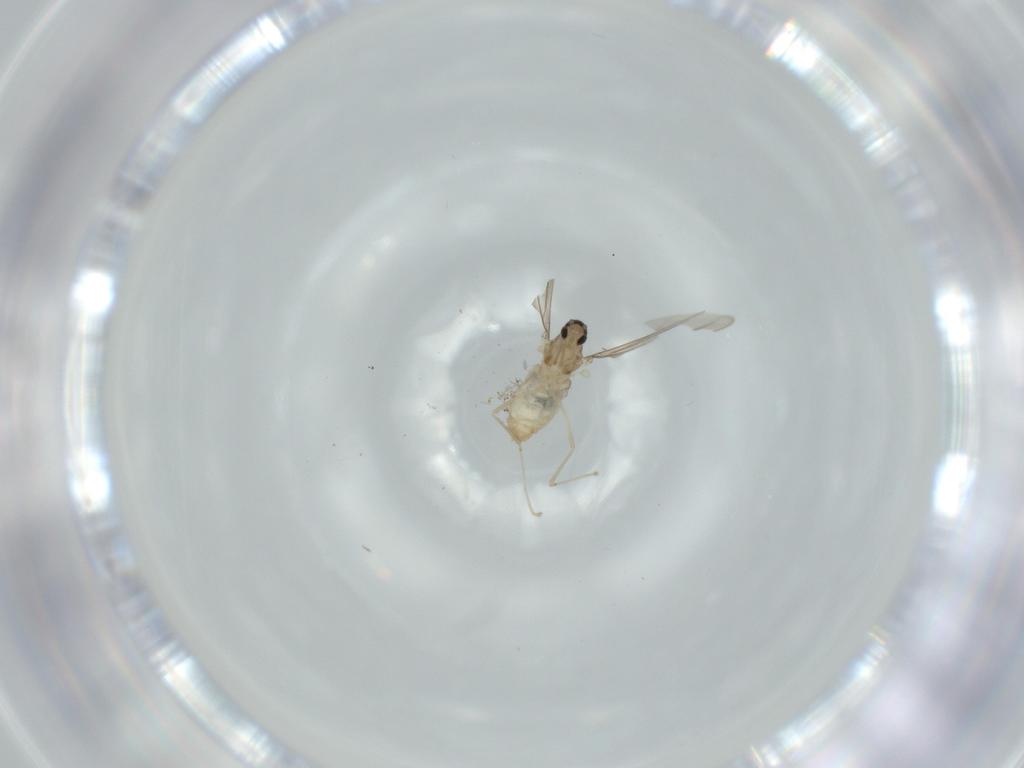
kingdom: Animalia
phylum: Arthropoda
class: Insecta
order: Diptera
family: Cecidomyiidae
